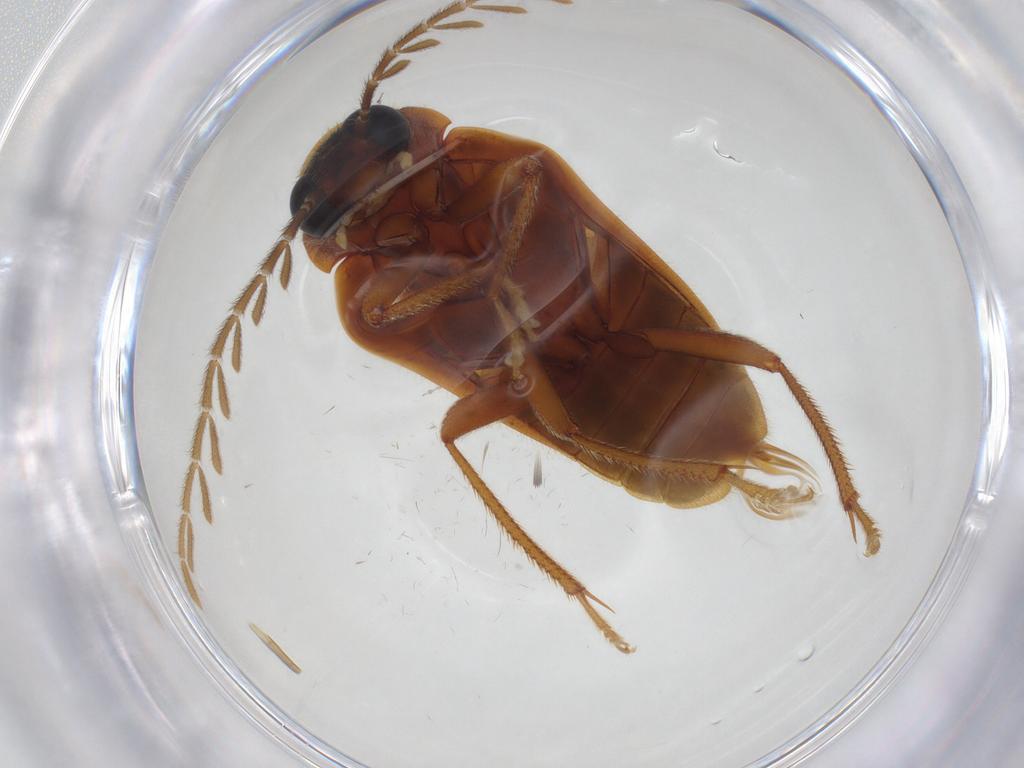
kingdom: Animalia
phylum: Arthropoda
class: Insecta
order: Coleoptera
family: Ptilodactylidae
